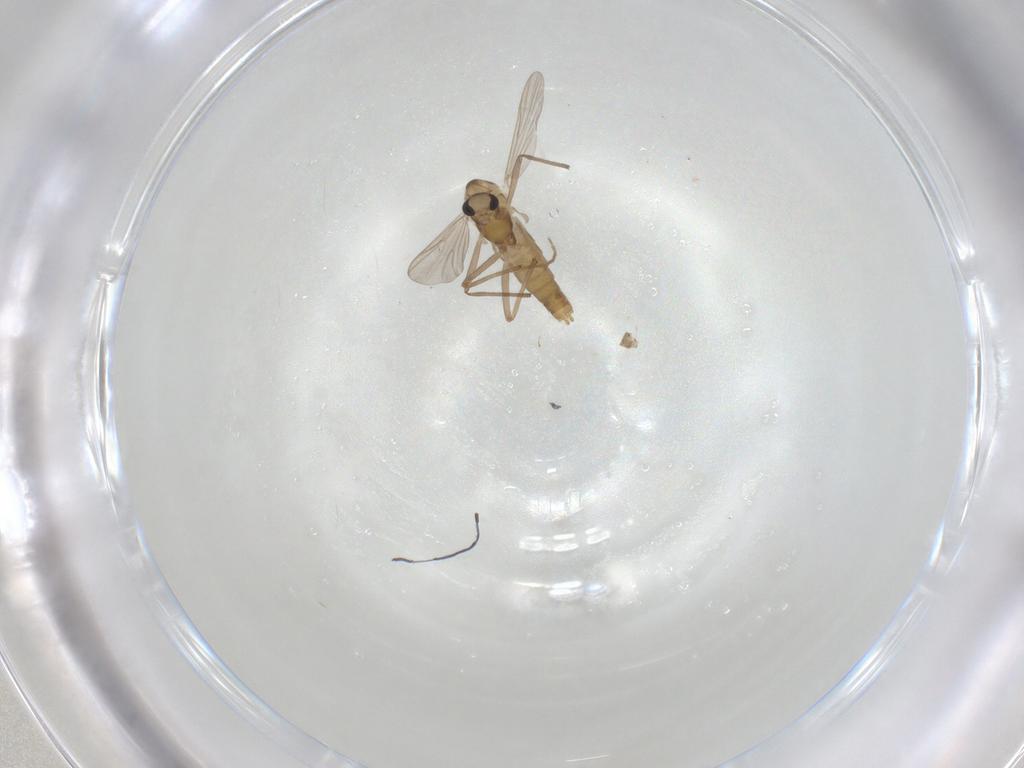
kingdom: Animalia
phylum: Arthropoda
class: Insecta
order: Diptera
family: Chironomidae
